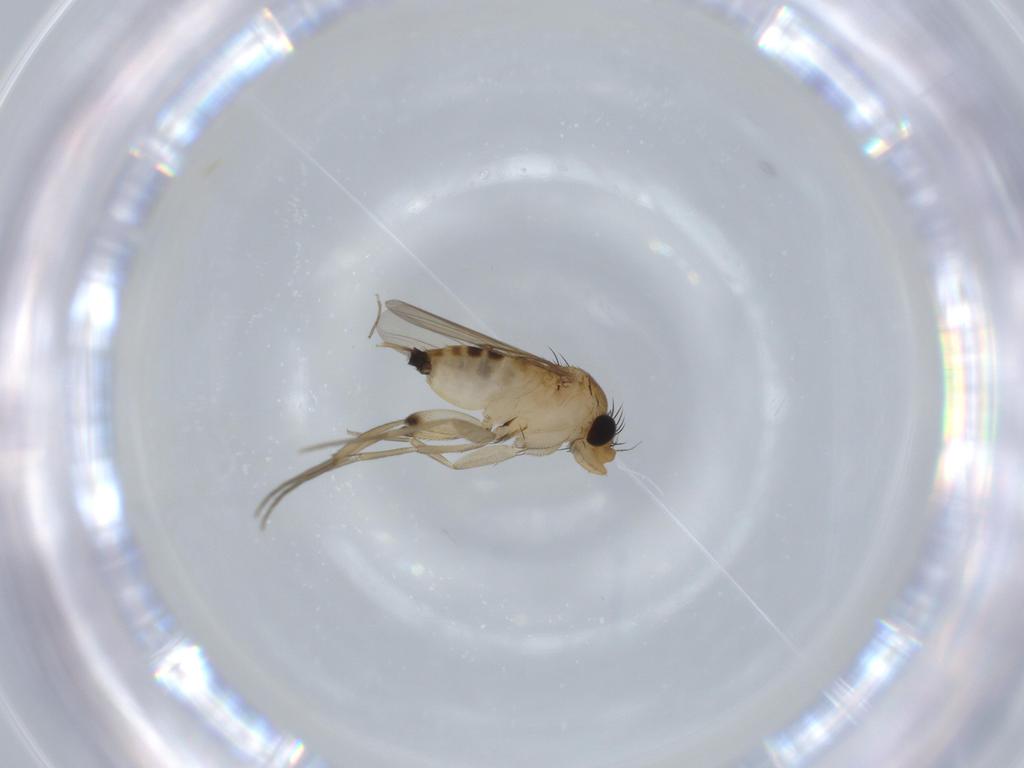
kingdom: Animalia
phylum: Arthropoda
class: Insecta
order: Diptera
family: Phoridae
